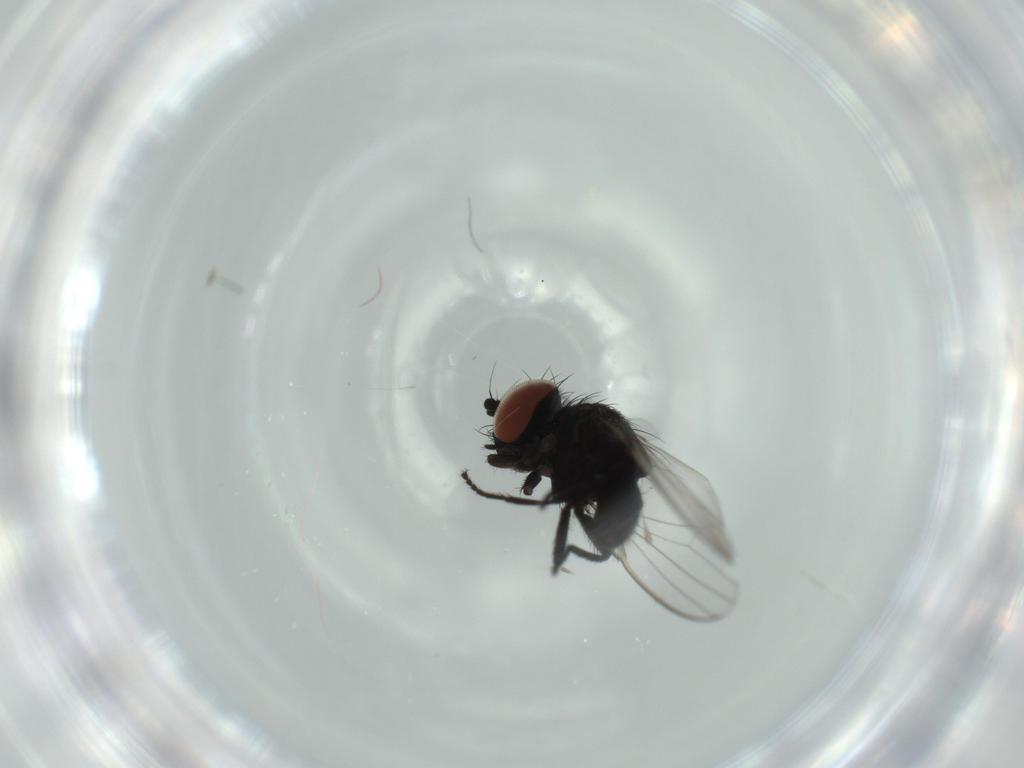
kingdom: Animalia
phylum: Arthropoda
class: Insecta
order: Diptera
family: Milichiidae
